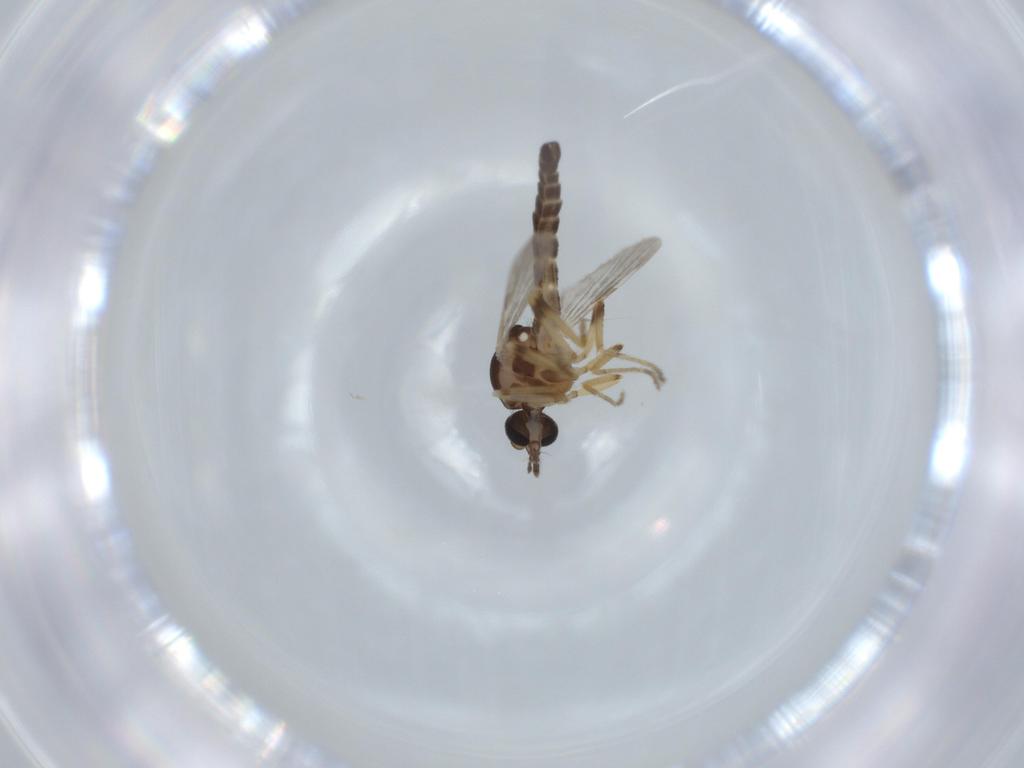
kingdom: Animalia
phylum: Arthropoda
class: Insecta
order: Diptera
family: Ceratopogonidae
